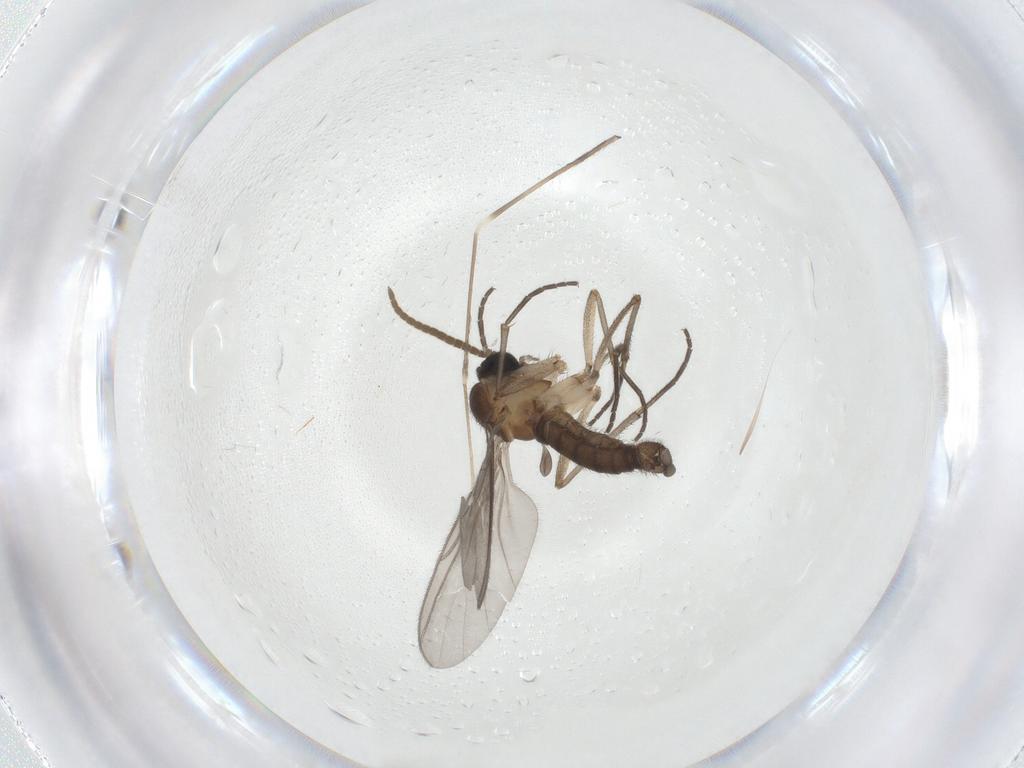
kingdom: Animalia
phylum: Arthropoda
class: Insecta
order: Diptera
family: Limoniidae
